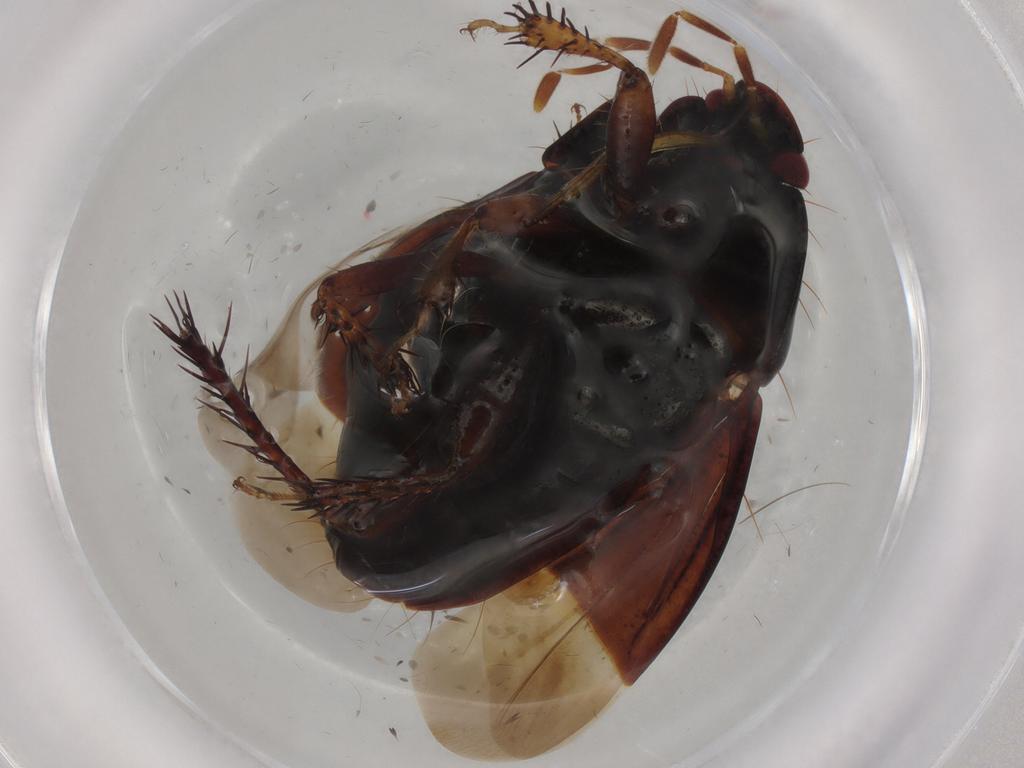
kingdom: Animalia
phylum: Arthropoda
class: Insecta
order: Hemiptera
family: Cydnidae
